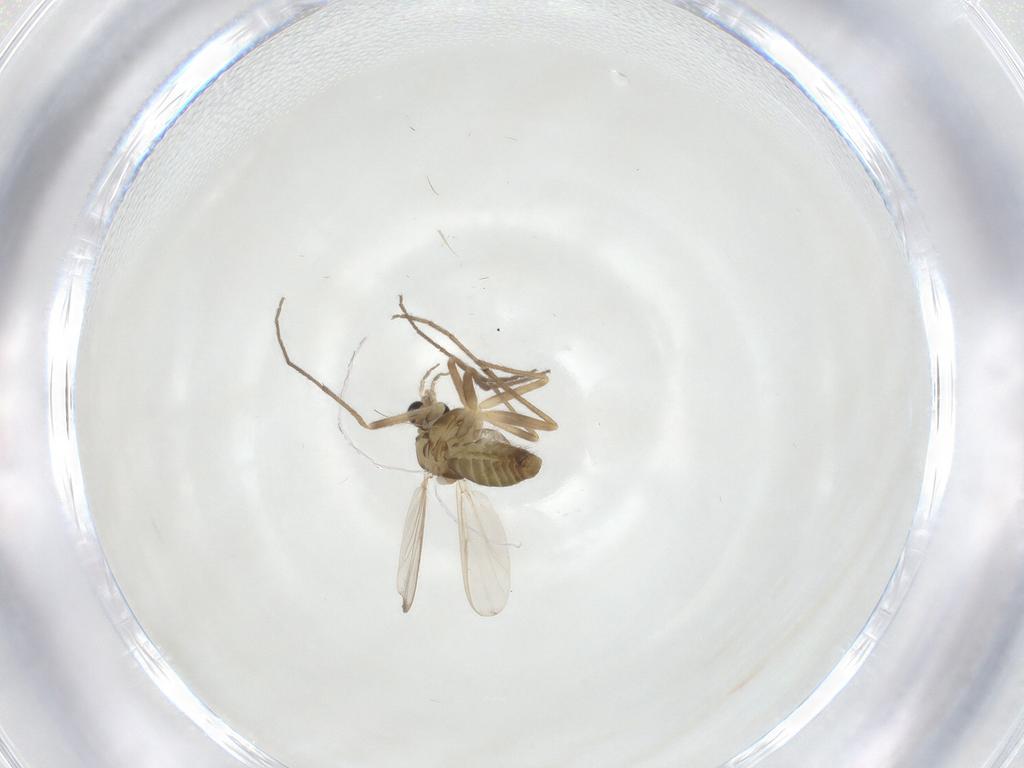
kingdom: Animalia
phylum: Arthropoda
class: Insecta
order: Diptera
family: Chironomidae
